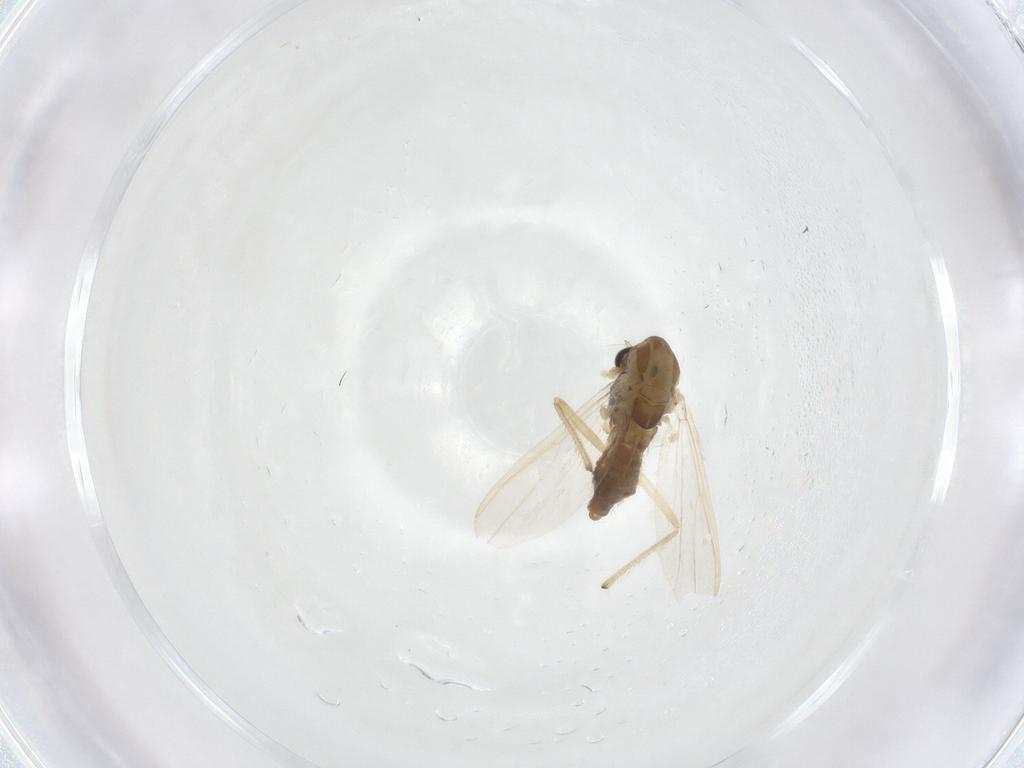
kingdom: Animalia
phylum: Arthropoda
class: Insecta
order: Diptera
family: Chironomidae
